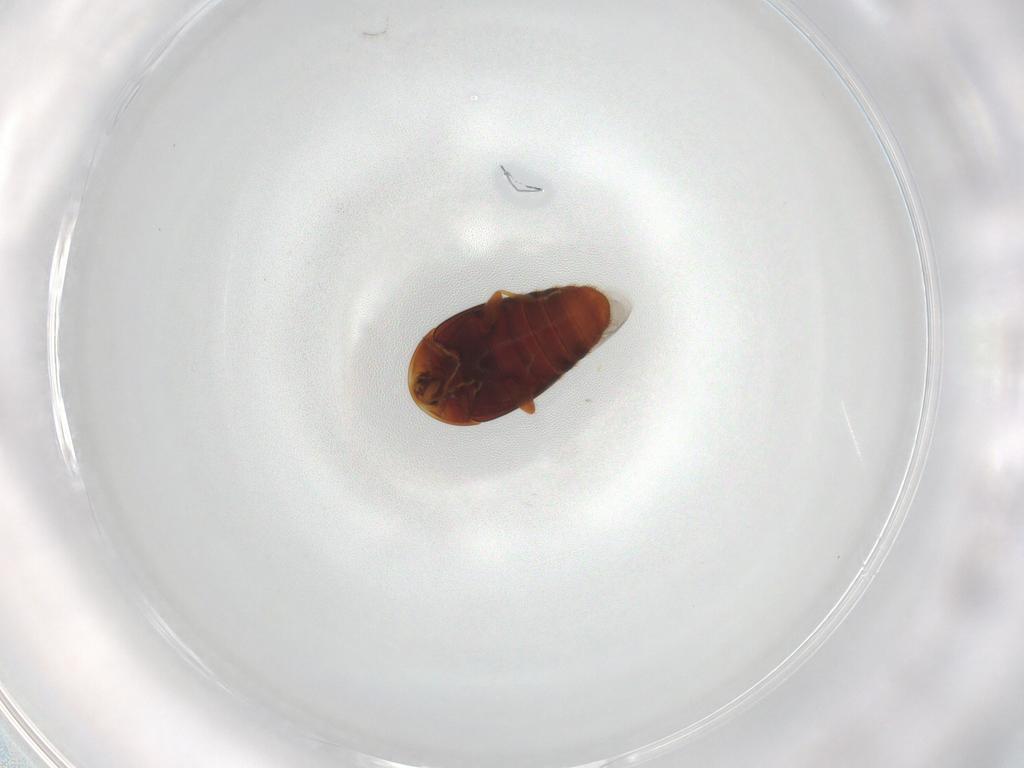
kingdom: Animalia
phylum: Arthropoda
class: Insecta
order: Coleoptera
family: Corylophidae
